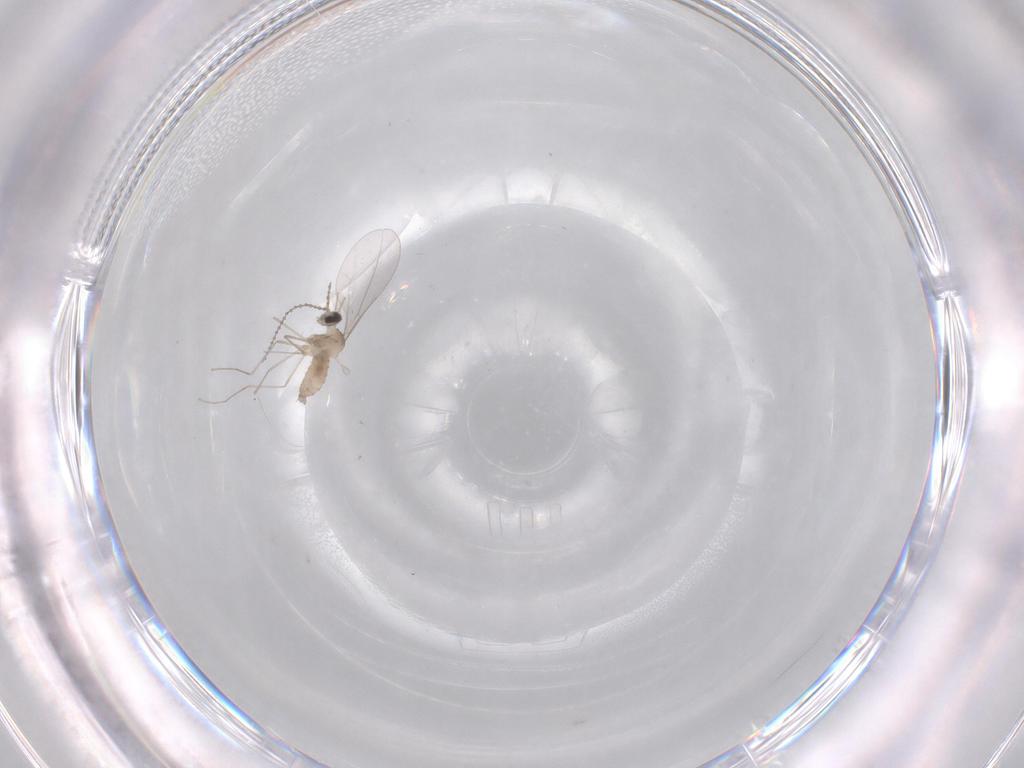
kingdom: Animalia
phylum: Arthropoda
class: Insecta
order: Diptera
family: Cecidomyiidae
